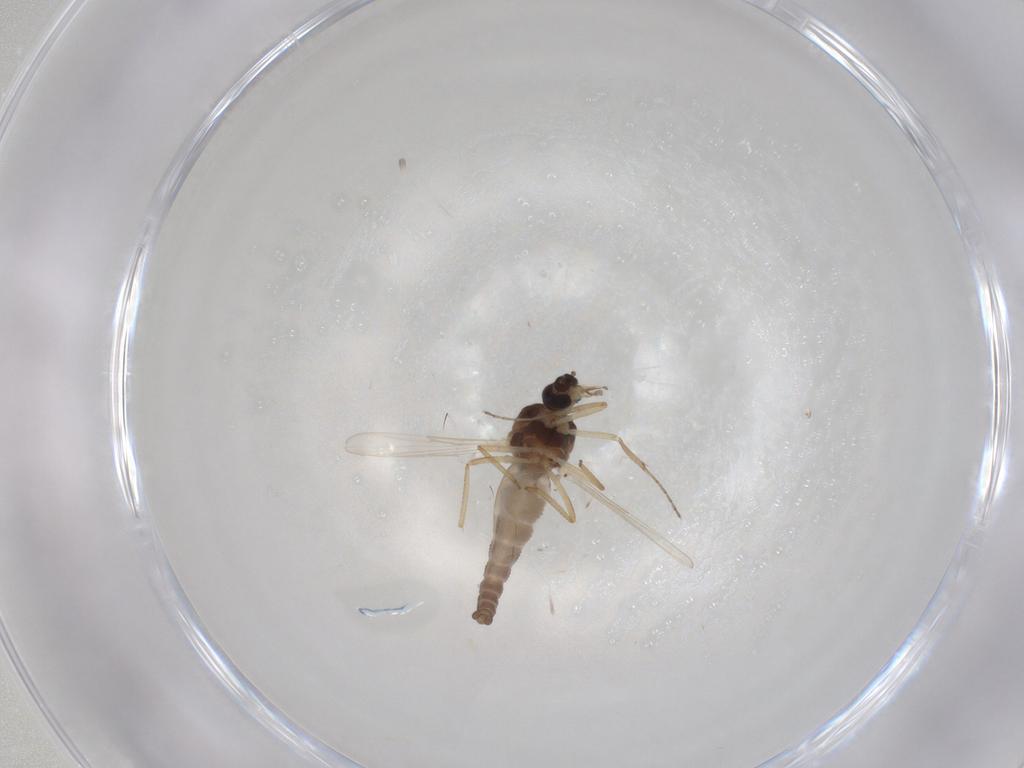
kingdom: Animalia
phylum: Arthropoda
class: Insecta
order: Diptera
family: Ceratopogonidae
